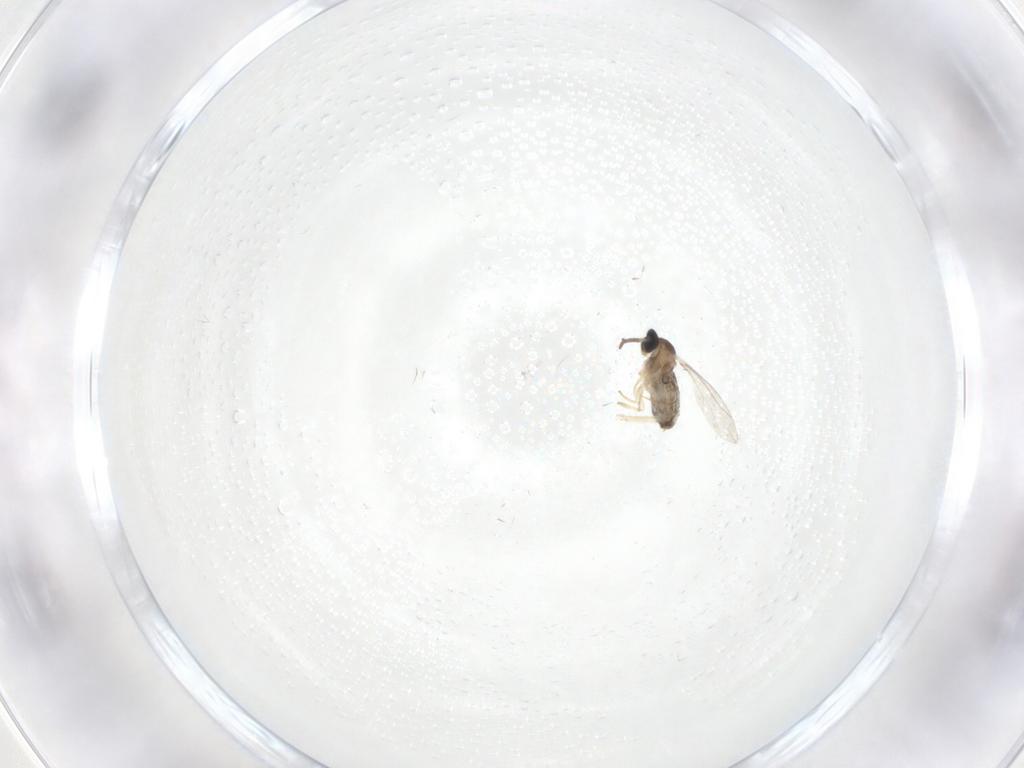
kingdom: Animalia
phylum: Arthropoda
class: Insecta
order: Diptera
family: Cecidomyiidae
